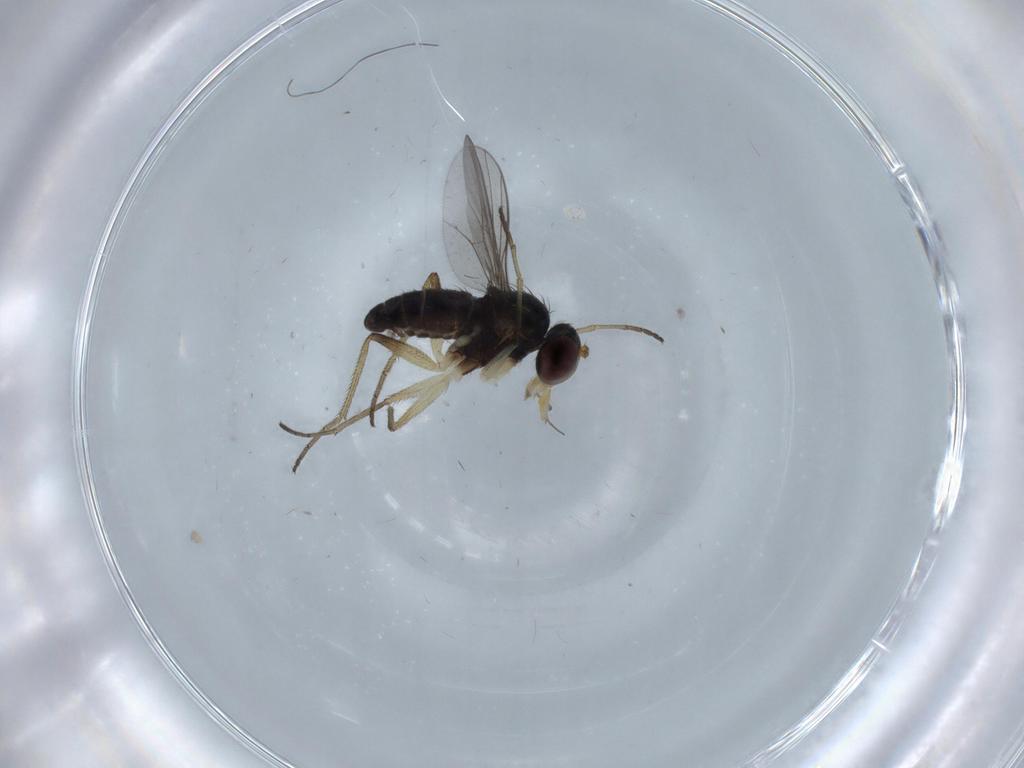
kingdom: Animalia
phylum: Arthropoda
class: Insecta
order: Diptera
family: Dolichopodidae
